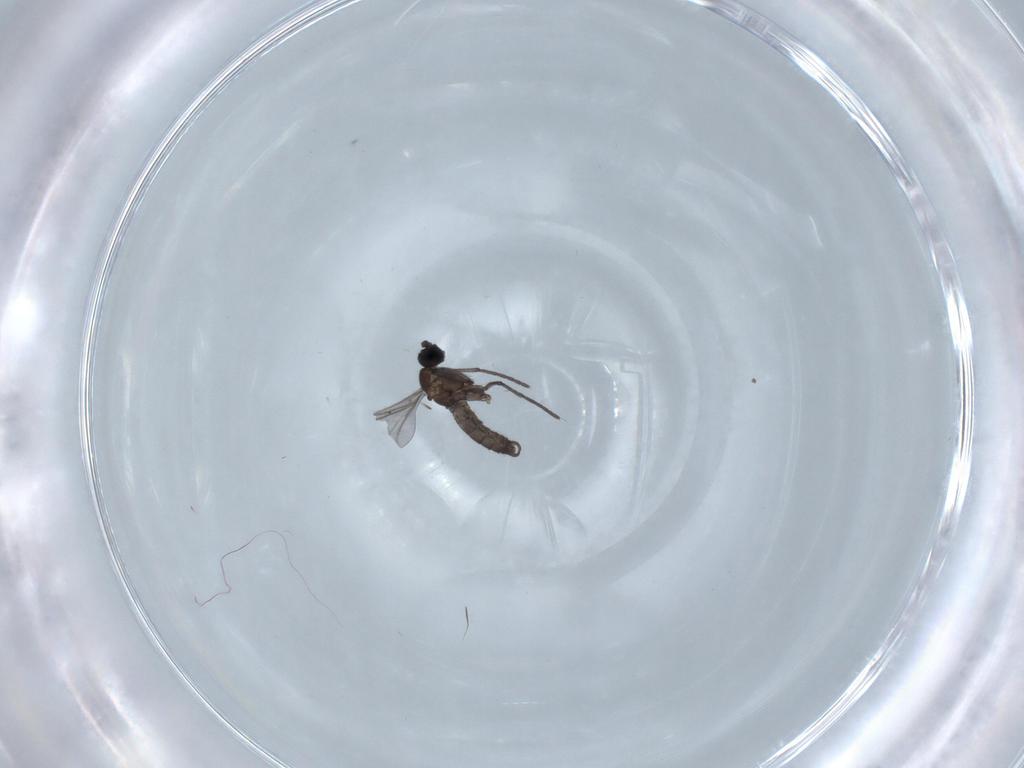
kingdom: Animalia
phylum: Arthropoda
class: Insecta
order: Diptera
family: Sciaridae
